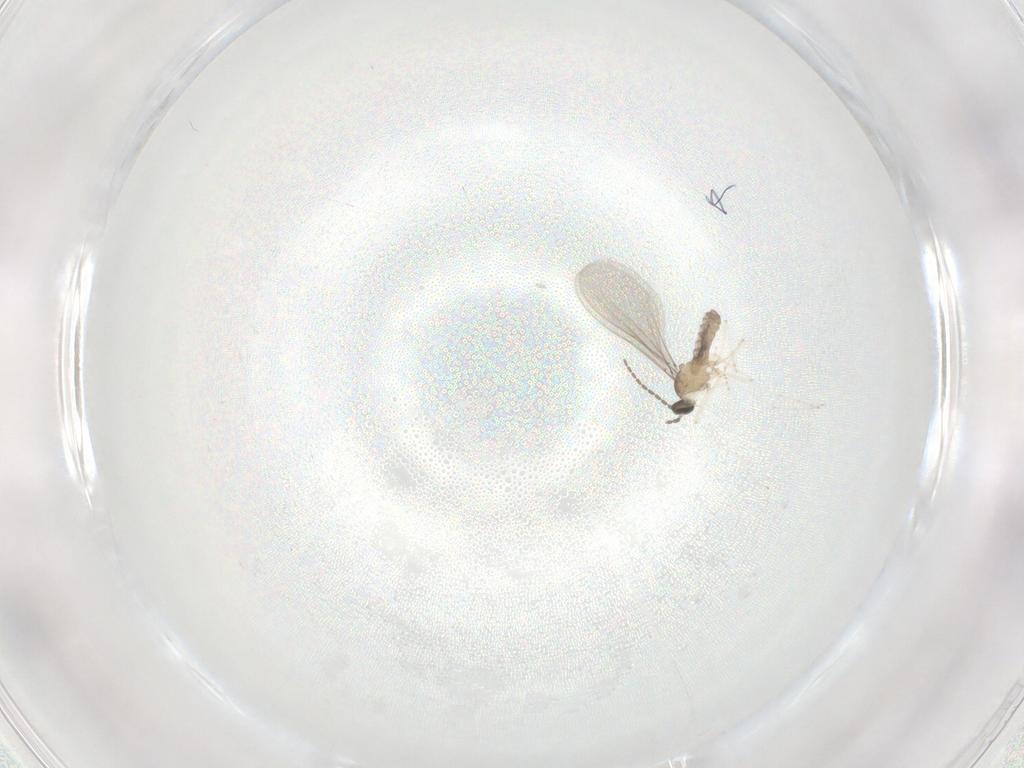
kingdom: Animalia
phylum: Arthropoda
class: Insecta
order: Diptera
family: Cecidomyiidae
